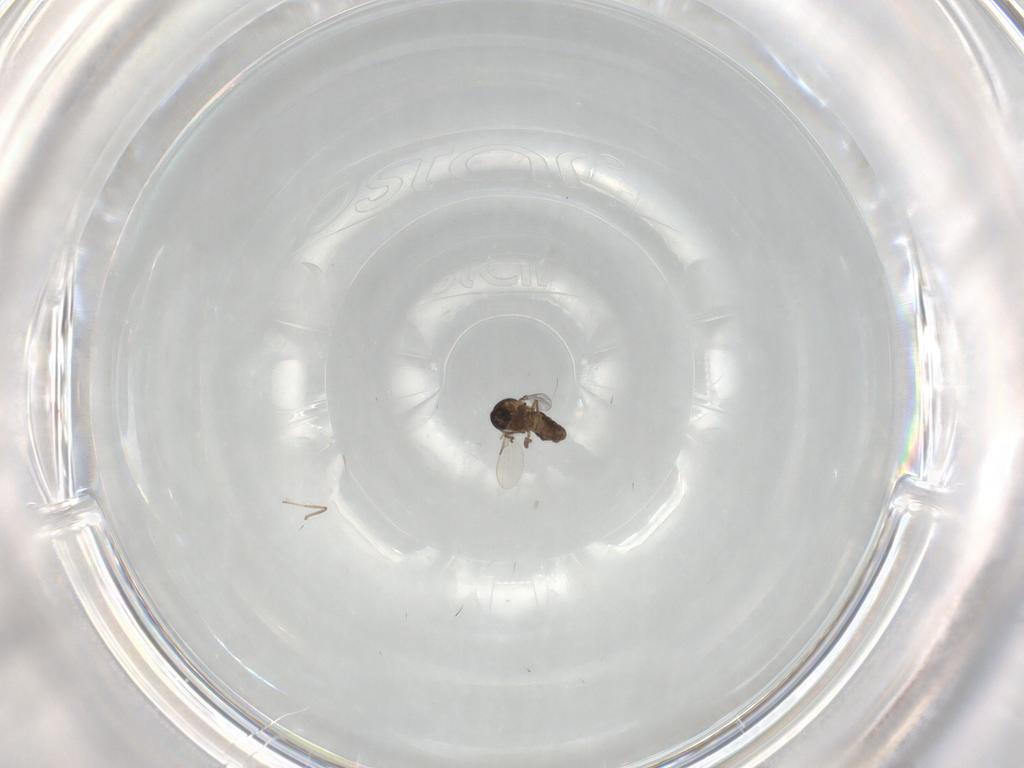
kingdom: Animalia
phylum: Arthropoda
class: Insecta
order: Diptera
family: Ceratopogonidae
